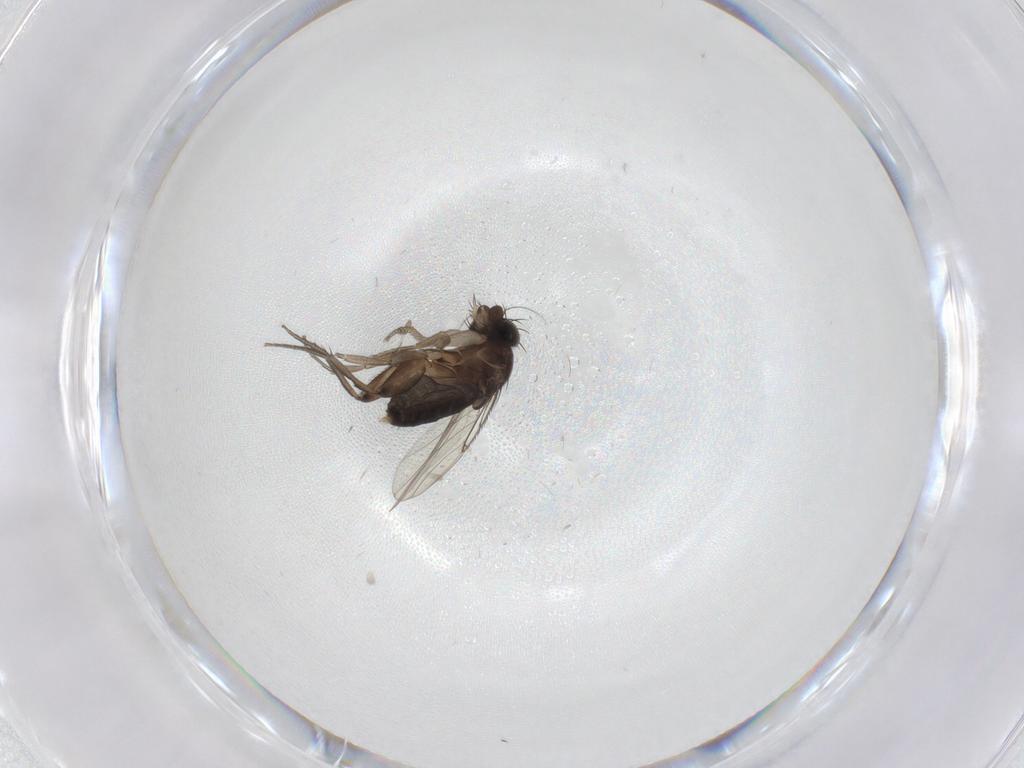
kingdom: Animalia
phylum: Arthropoda
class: Insecta
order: Diptera
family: Phoridae
